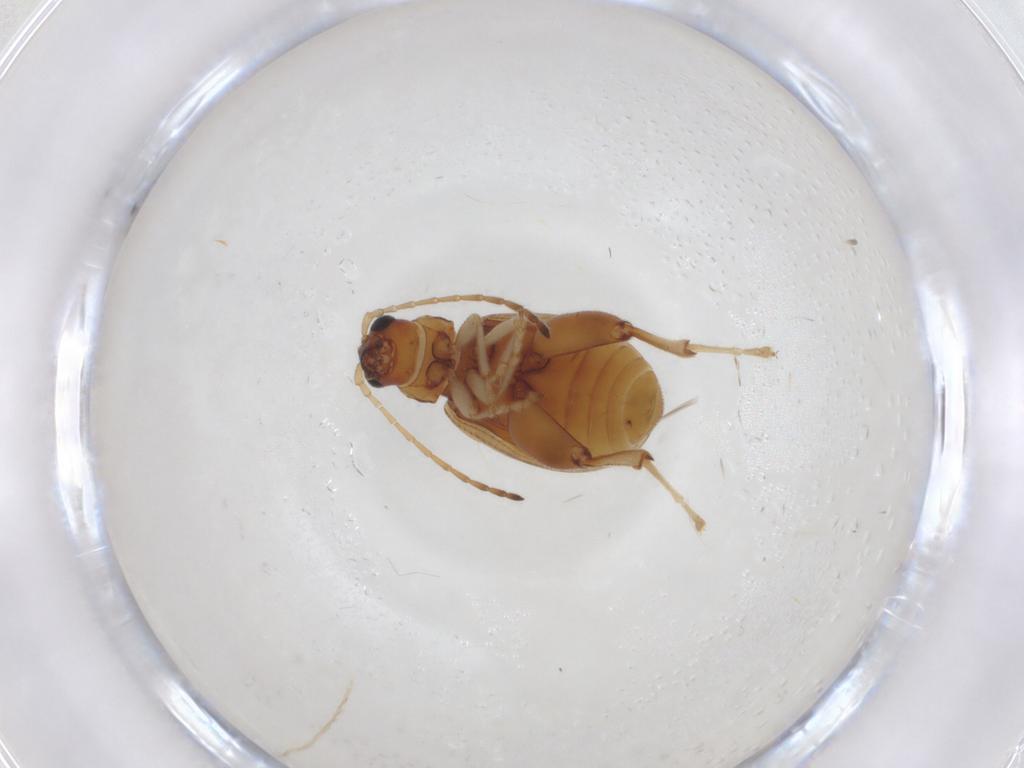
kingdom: Animalia
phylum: Arthropoda
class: Insecta
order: Coleoptera
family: Chrysomelidae
